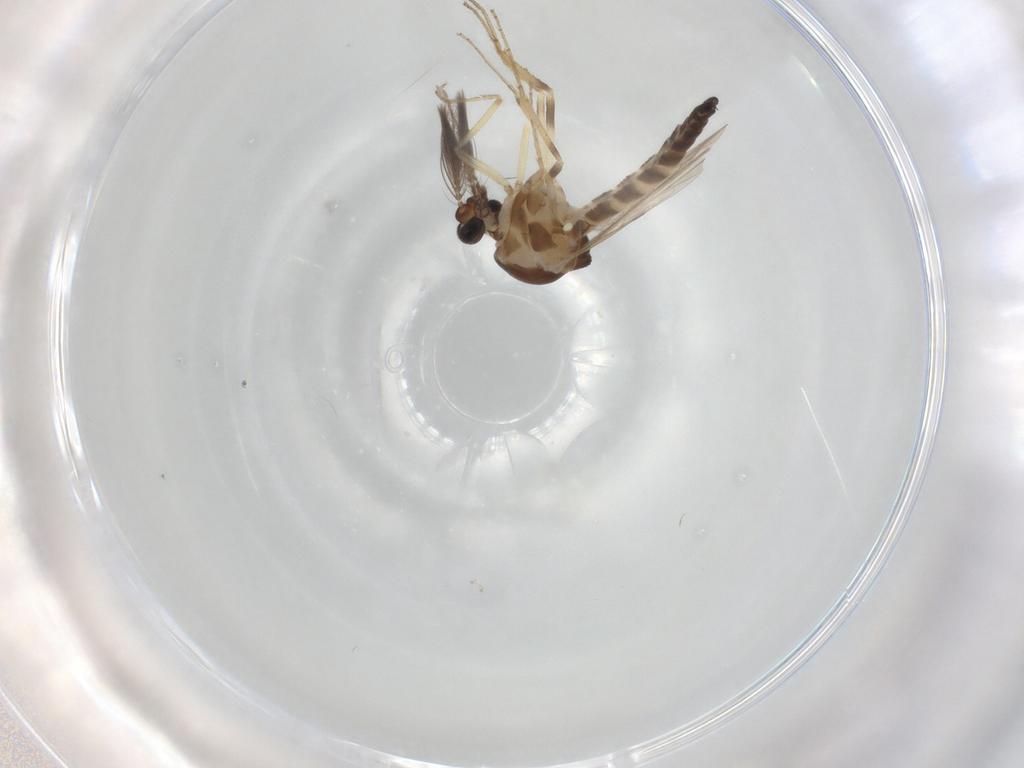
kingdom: Animalia
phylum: Arthropoda
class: Insecta
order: Diptera
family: Ceratopogonidae
